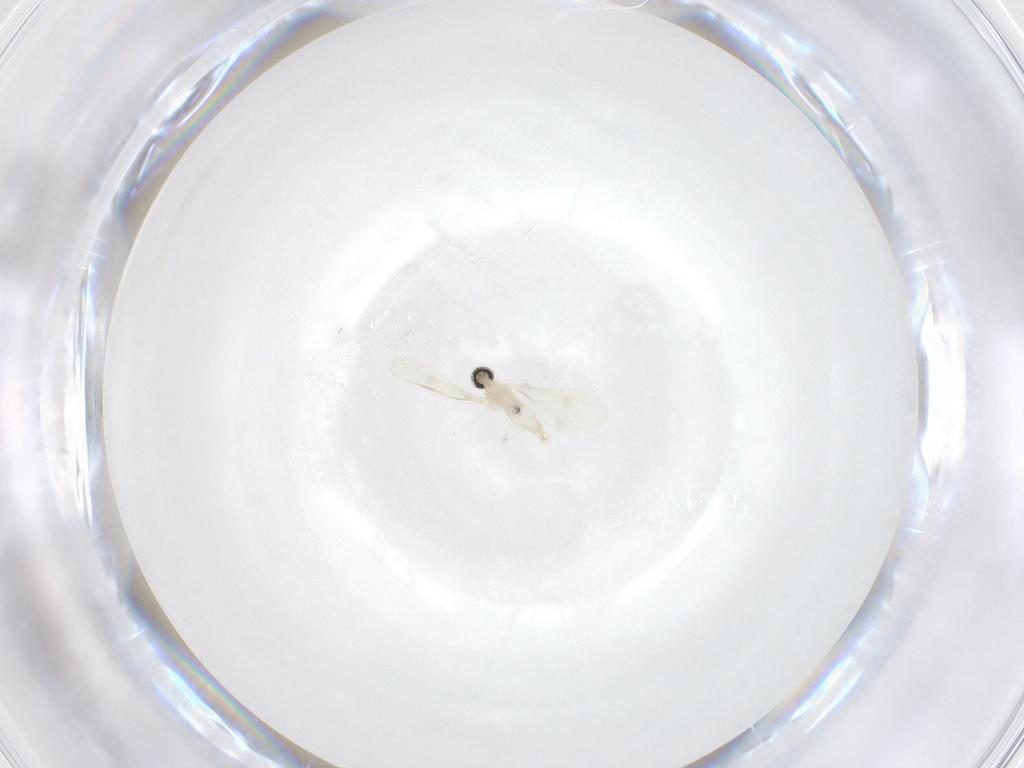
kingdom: Animalia
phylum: Arthropoda
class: Insecta
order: Diptera
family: Cecidomyiidae
